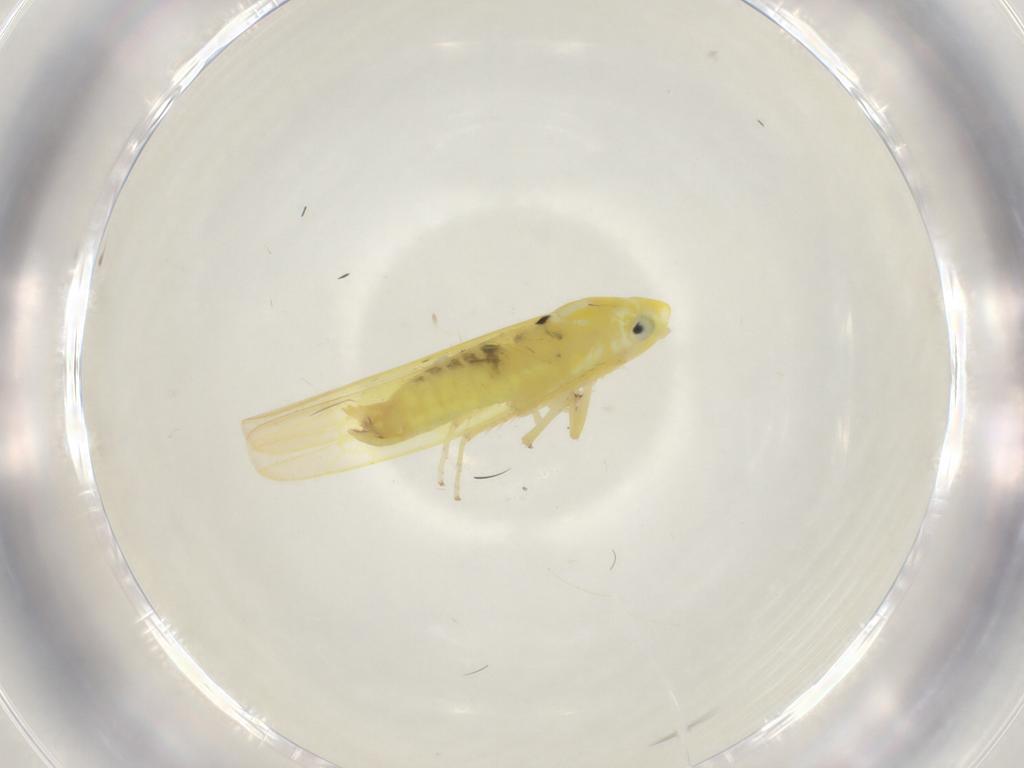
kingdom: Animalia
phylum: Arthropoda
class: Insecta
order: Hemiptera
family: Cicadellidae
